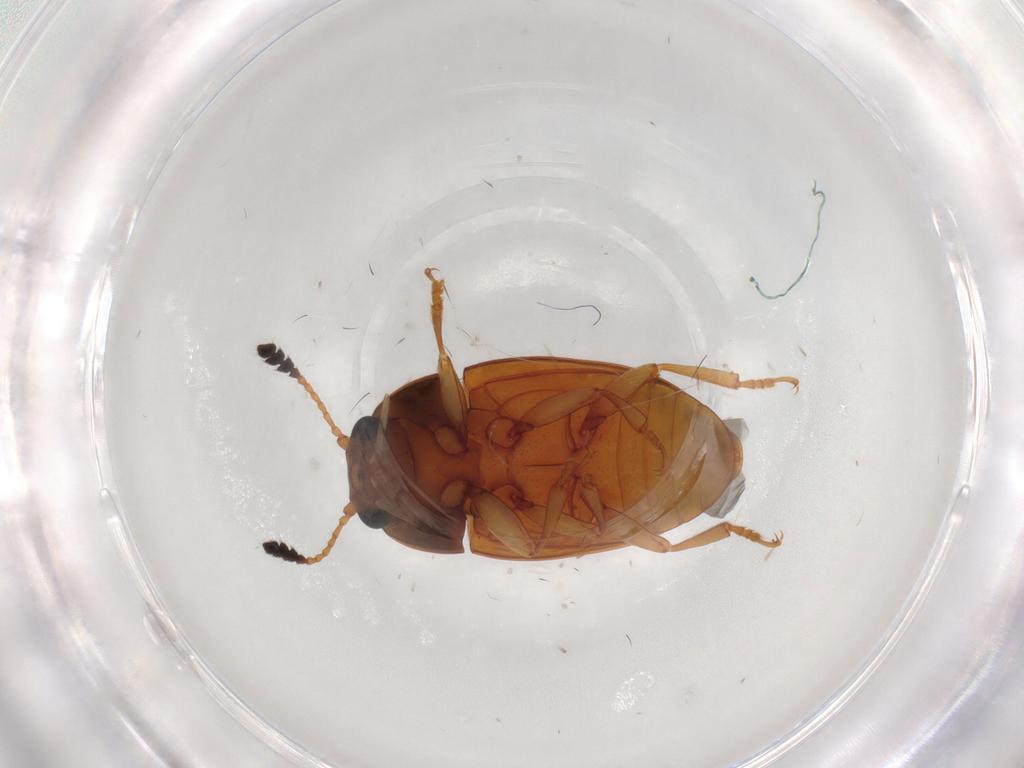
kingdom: Animalia
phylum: Arthropoda
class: Insecta
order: Coleoptera
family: Erotylidae
